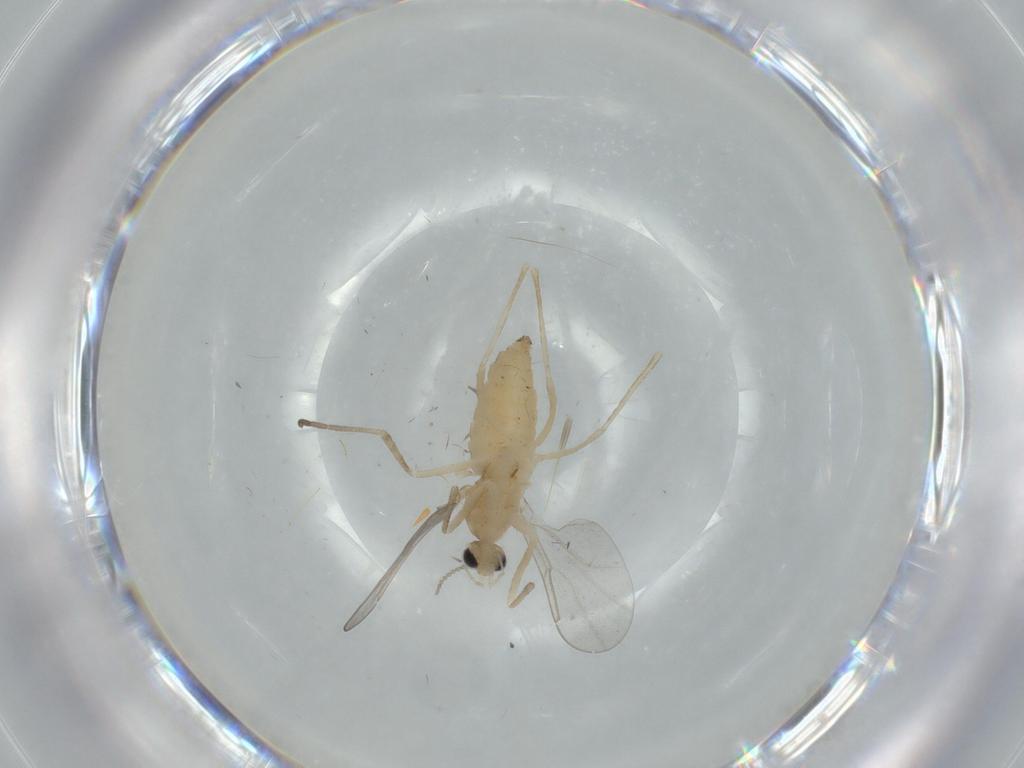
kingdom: Animalia
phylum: Arthropoda
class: Insecta
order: Diptera
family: Cecidomyiidae
